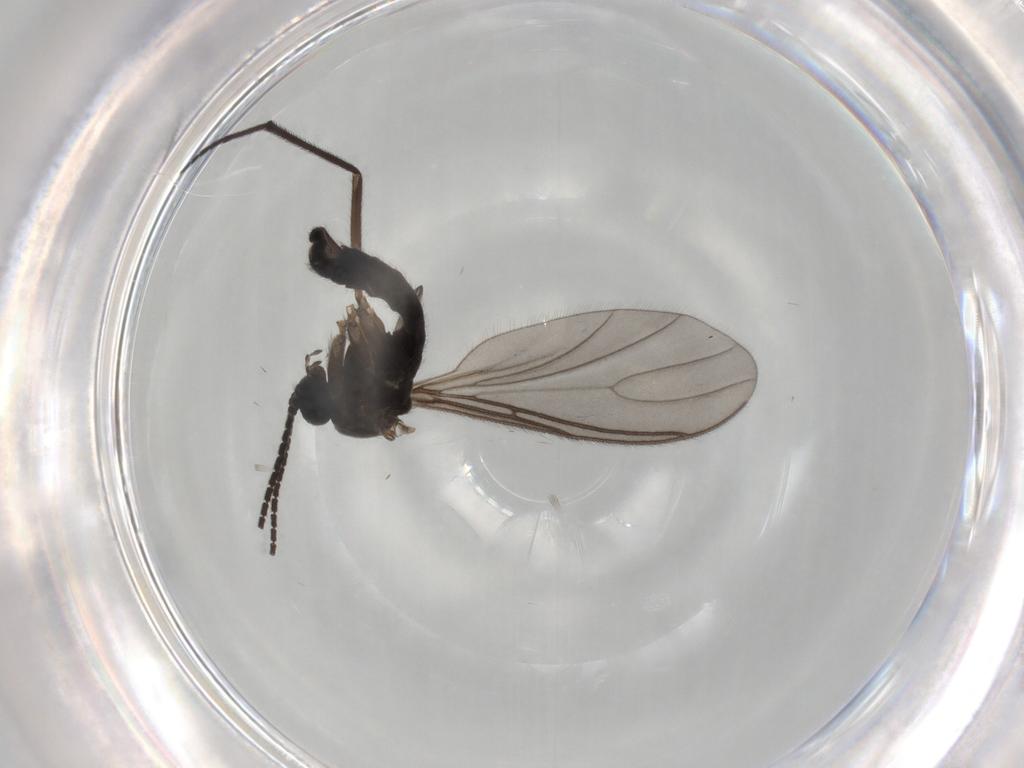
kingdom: Animalia
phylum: Arthropoda
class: Insecta
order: Diptera
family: Sciaridae
